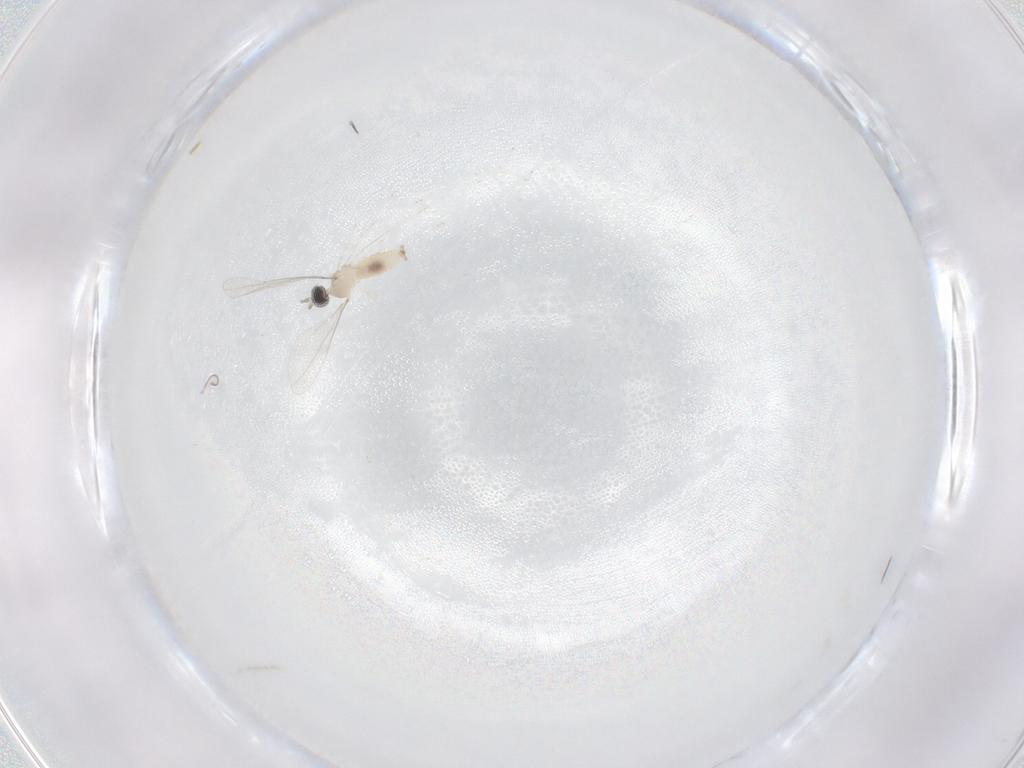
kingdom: Animalia
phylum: Arthropoda
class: Insecta
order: Diptera
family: Cecidomyiidae
